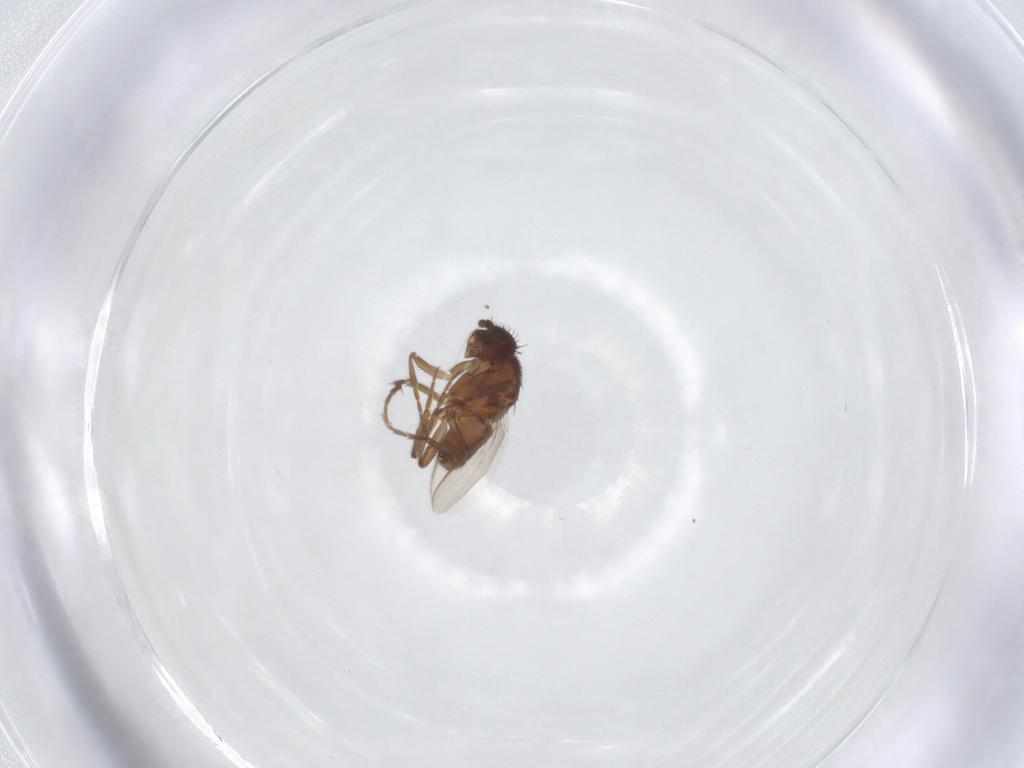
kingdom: Animalia
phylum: Arthropoda
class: Insecta
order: Diptera
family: Sphaeroceridae
